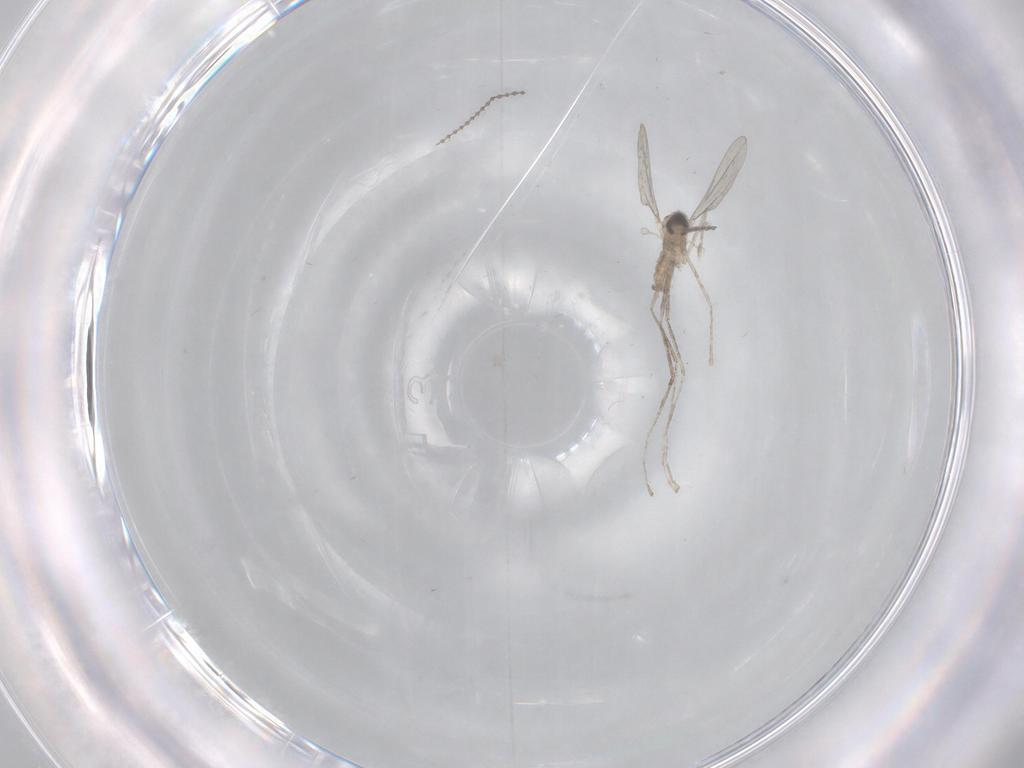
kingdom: Animalia
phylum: Arthropoda
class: Insecta
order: Diptera
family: Cecidomyiidae
